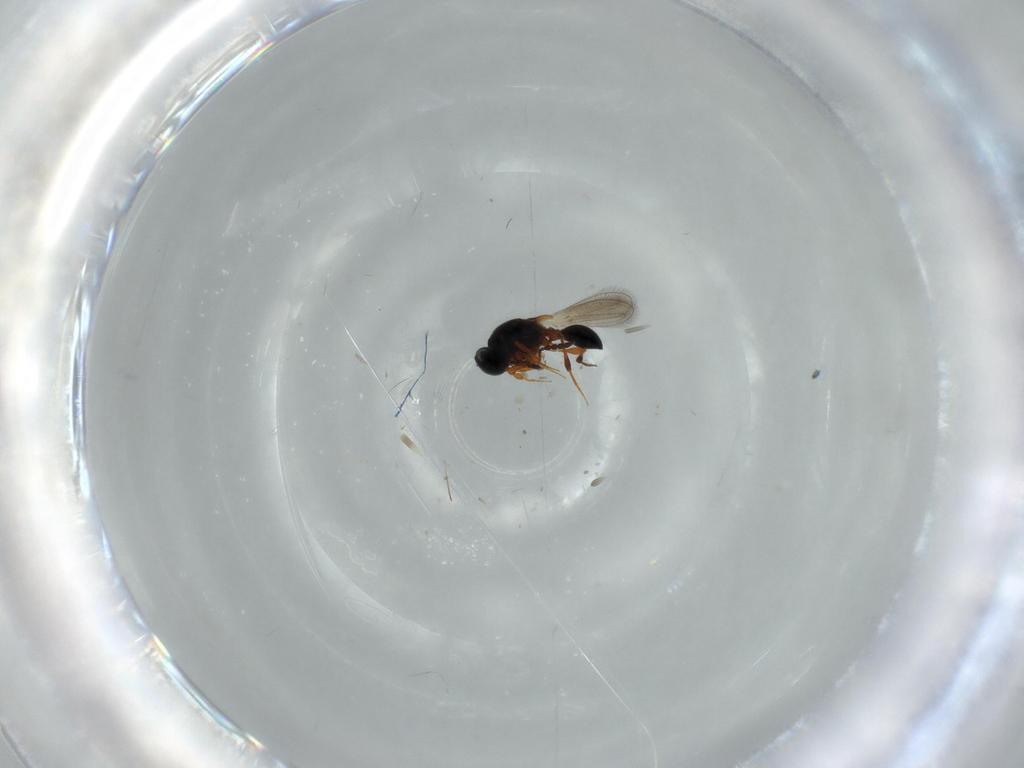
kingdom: Animalia
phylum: Arthropoda
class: Insecta
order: Hymenoptera
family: Platygastridae
